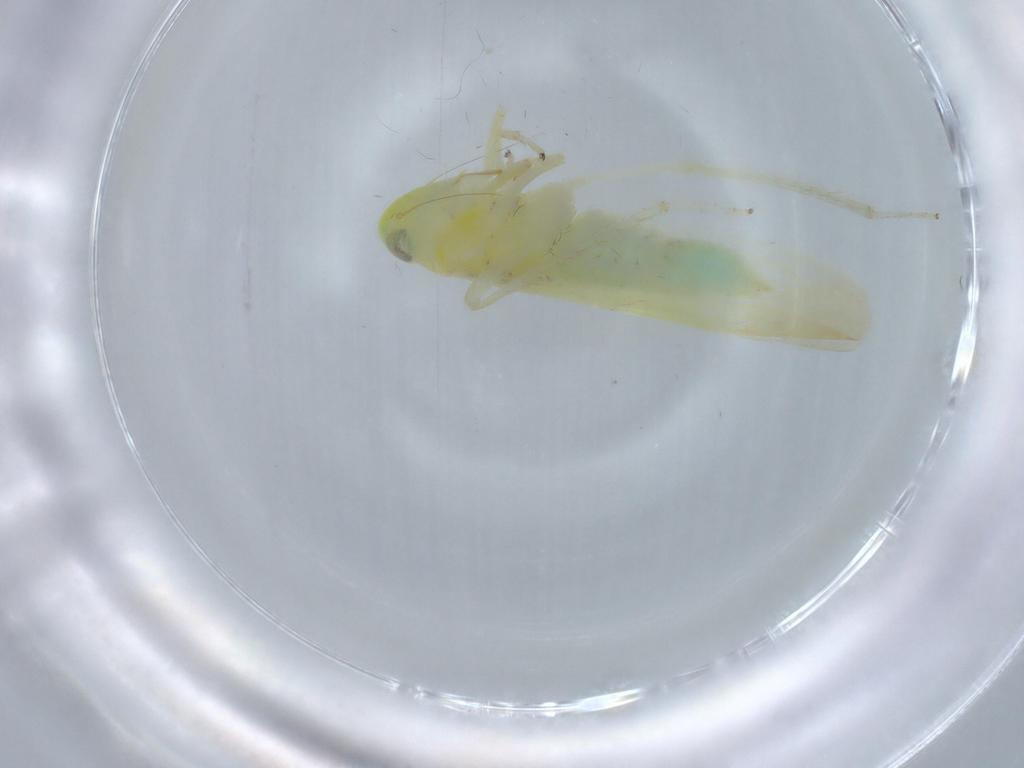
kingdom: Animalia
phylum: Arthropoda
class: Insecta
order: Hemiptera
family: Cicadellidae
